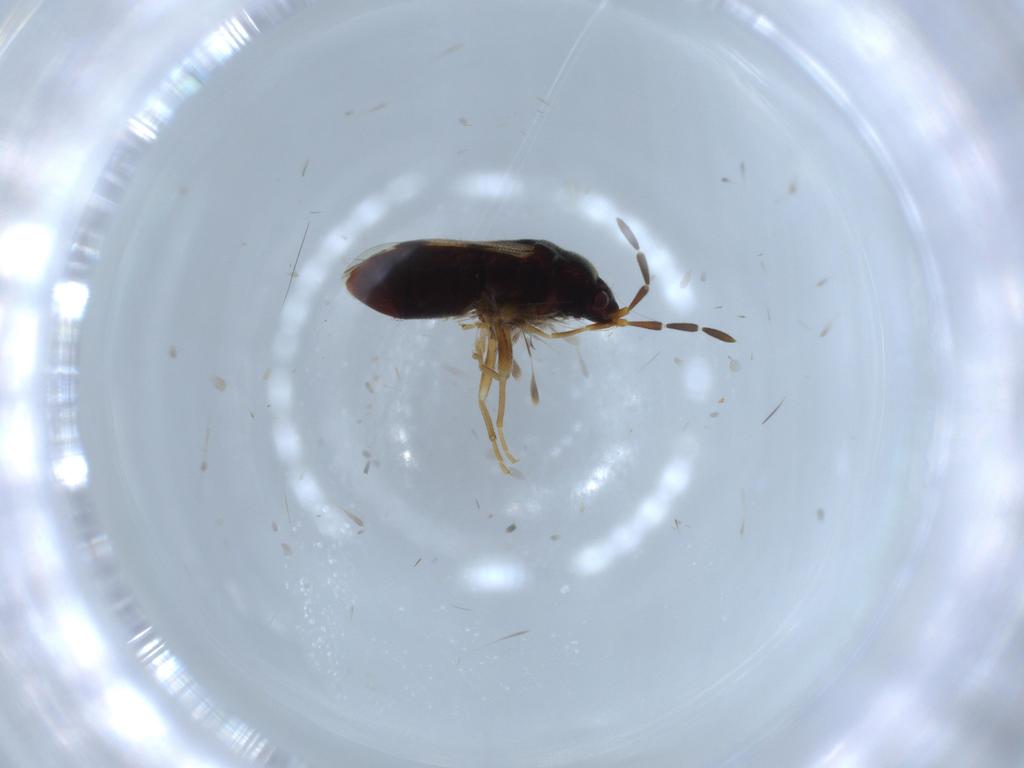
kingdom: Animalia
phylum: Arthropoda
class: Insecta
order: Hemiptera
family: Rhyparochromidae
